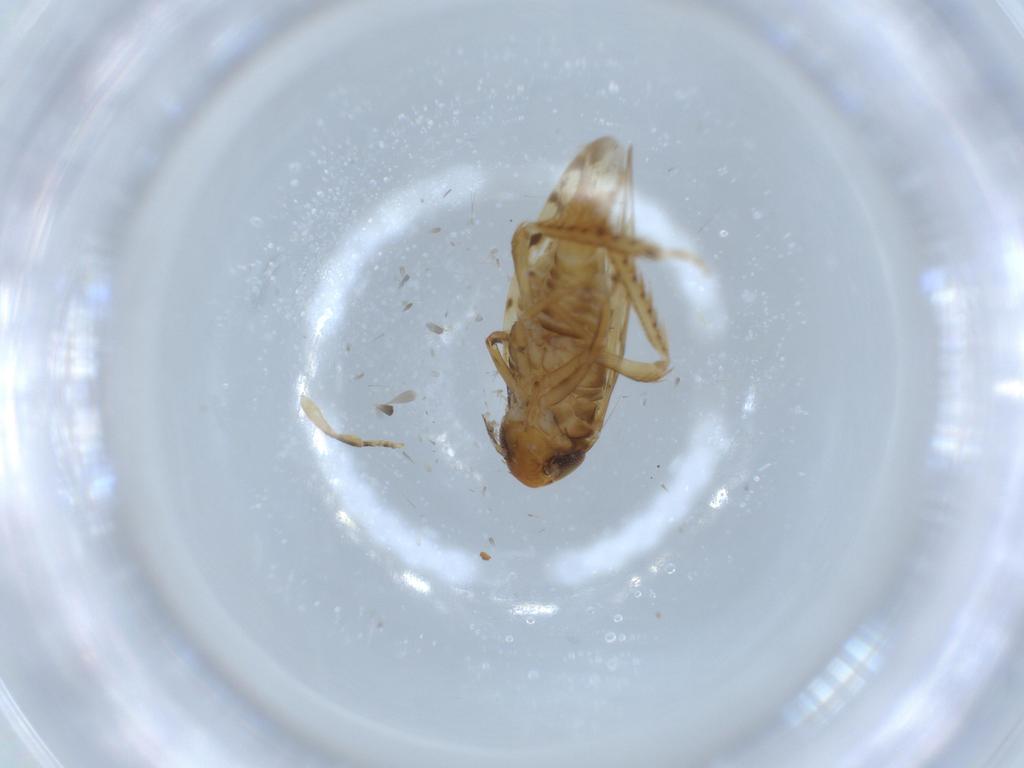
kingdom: Animalia
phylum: Arthropoda
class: Insecta
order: Hemiptera
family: Cicadellidae
